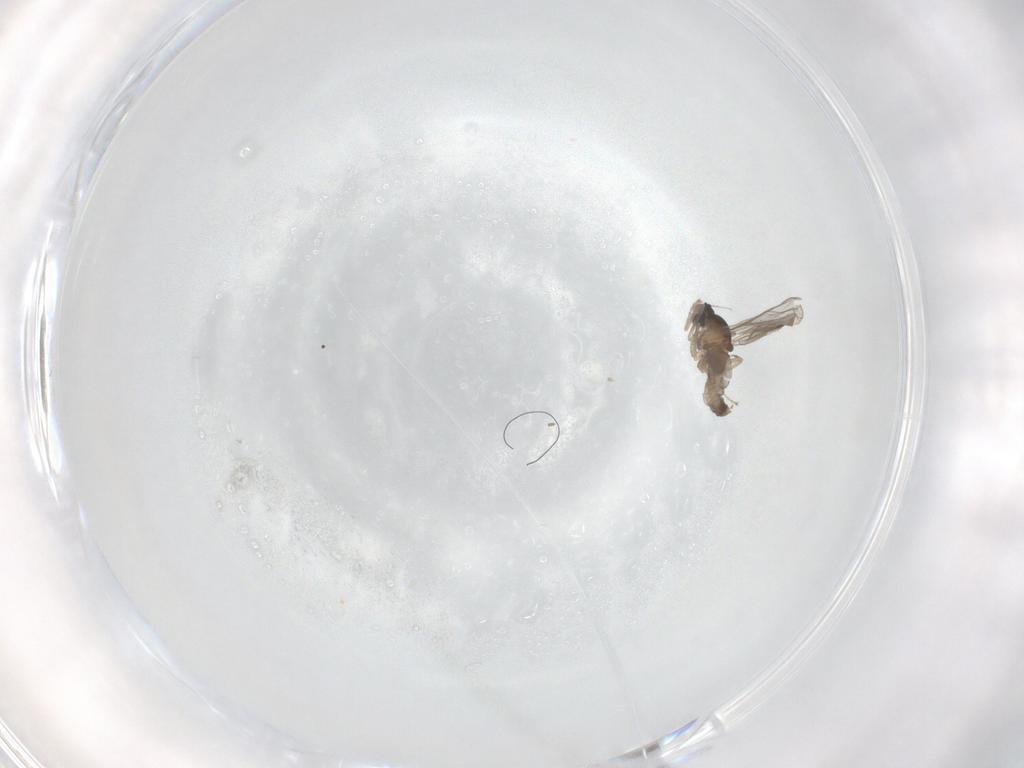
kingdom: Animalia
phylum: Arthropoda
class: Insecta
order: Diptera
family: Cecidomyiidae
